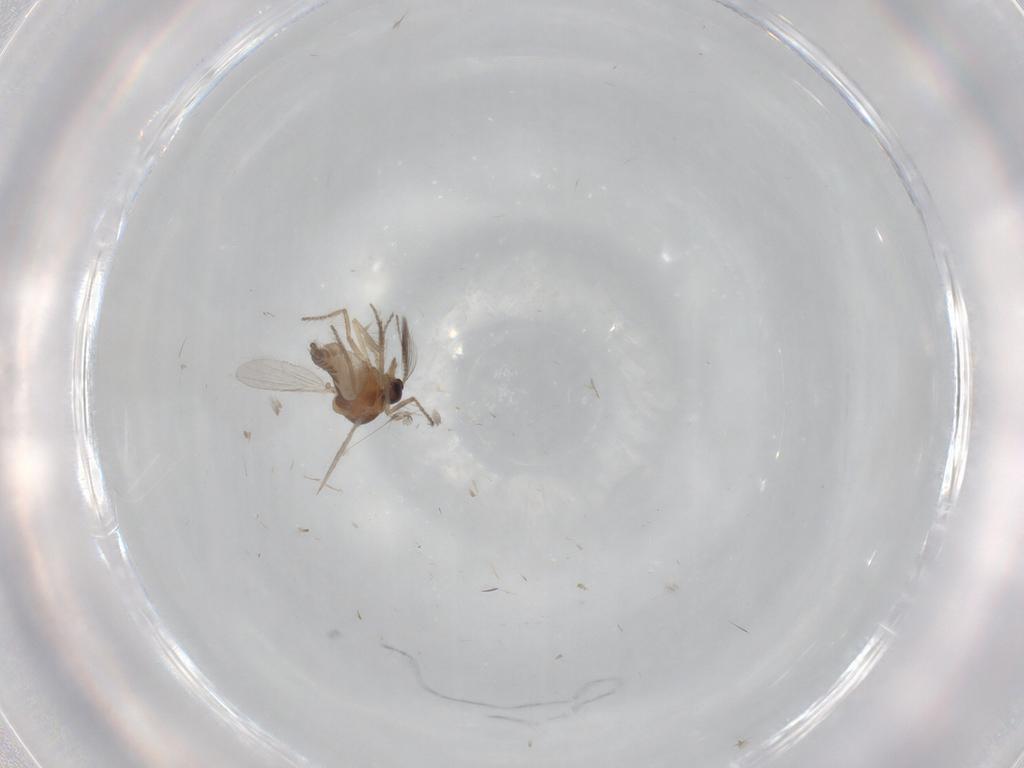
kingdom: Animalia
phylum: Arthropoda
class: Insecta
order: Diptera
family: Ceratopogonidae
